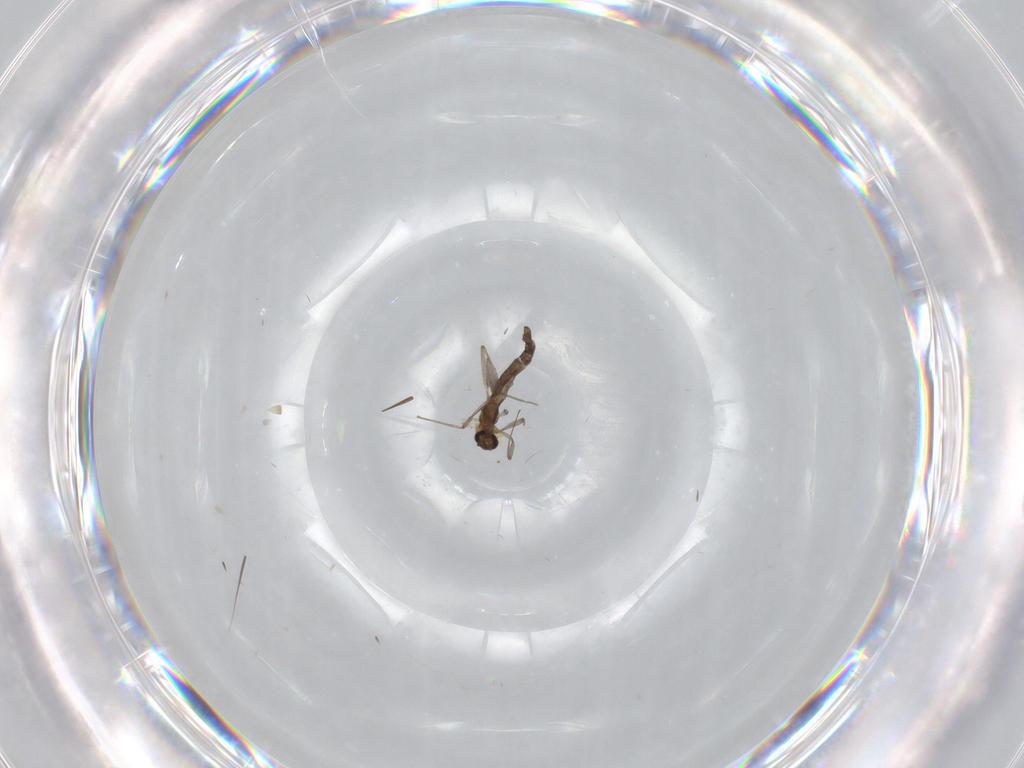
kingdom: Animalia
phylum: Arthropoda
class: Insecta
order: Diptera
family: Chironomidae
